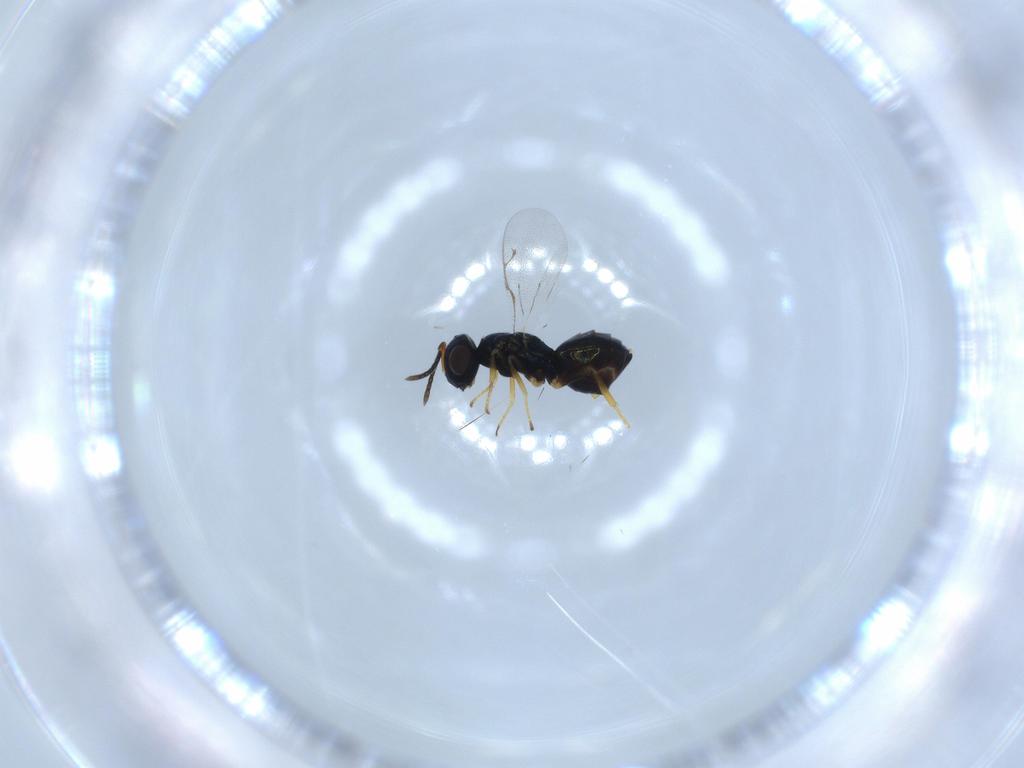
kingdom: Animalia
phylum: Arthropoda
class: Insecta
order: Hymenoptera
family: Pteromalidae
